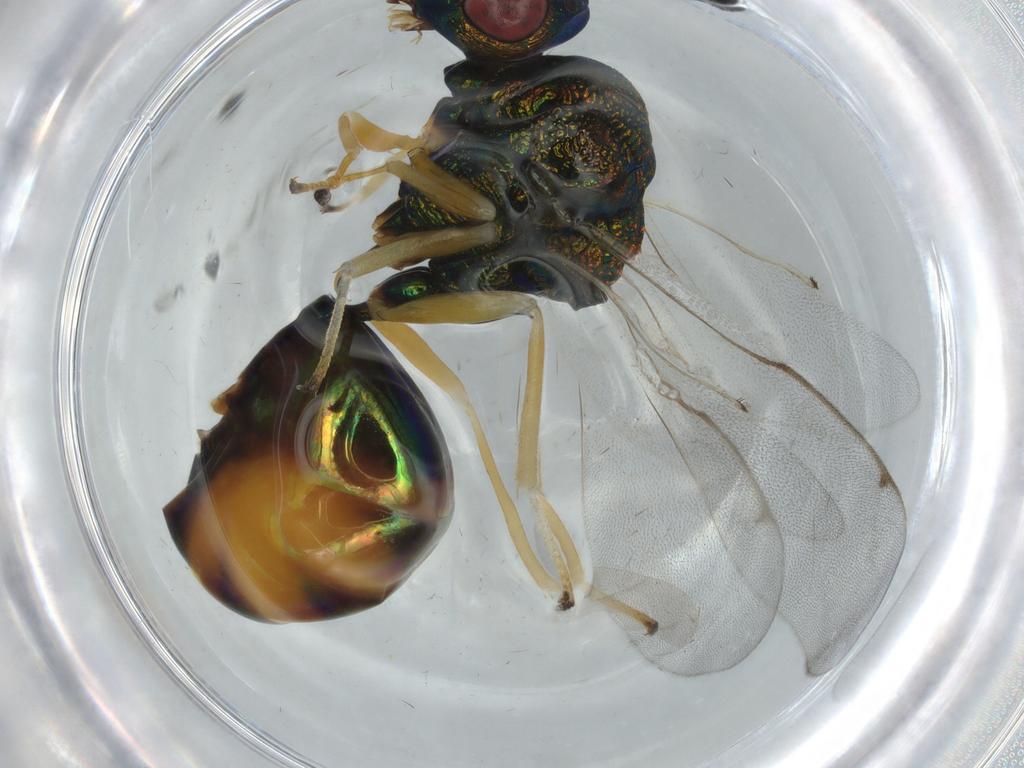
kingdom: Animalia
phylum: Arthropoda
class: Insecta
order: Hymenoptera
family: Eucharitidae
